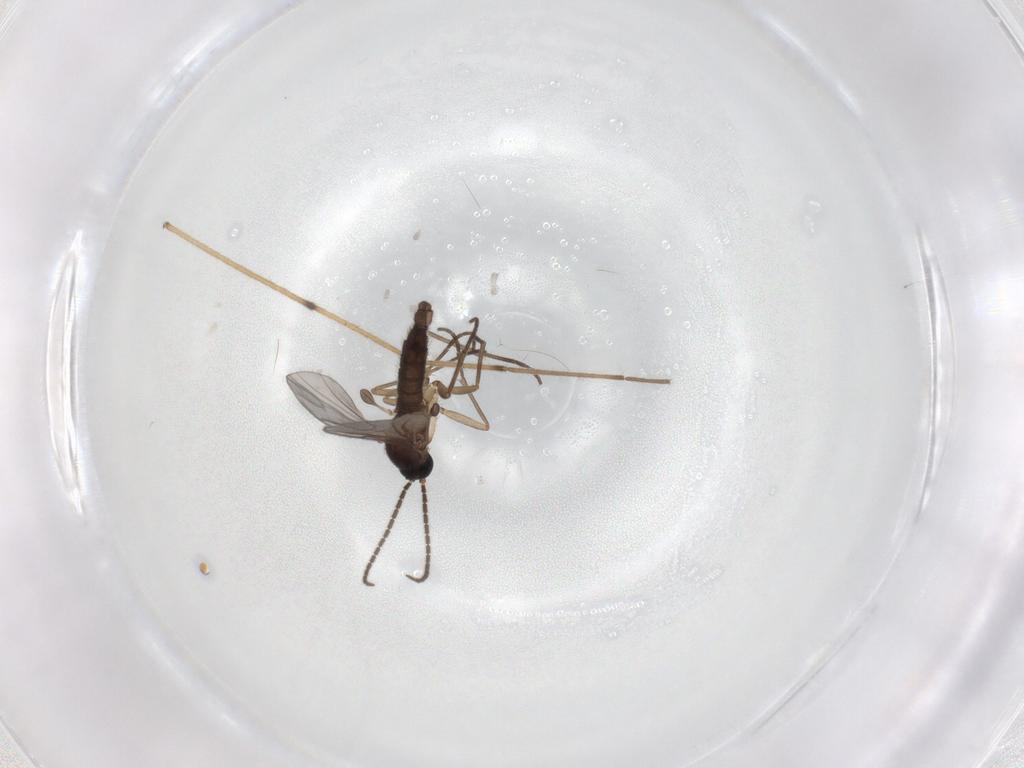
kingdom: Animalia
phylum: Arthropoda
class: Insecta
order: Diptera
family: Chironomidae
